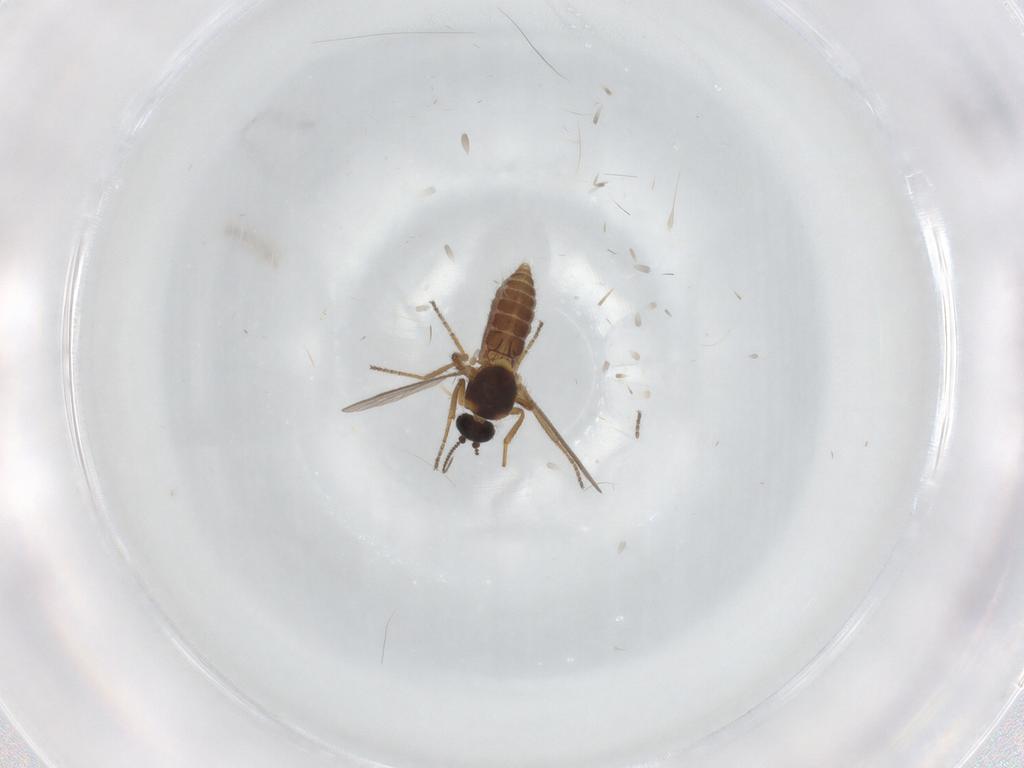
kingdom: Animalia
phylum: Arthropoda
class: Insecta
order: Diptera
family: Ceratopogonidae
